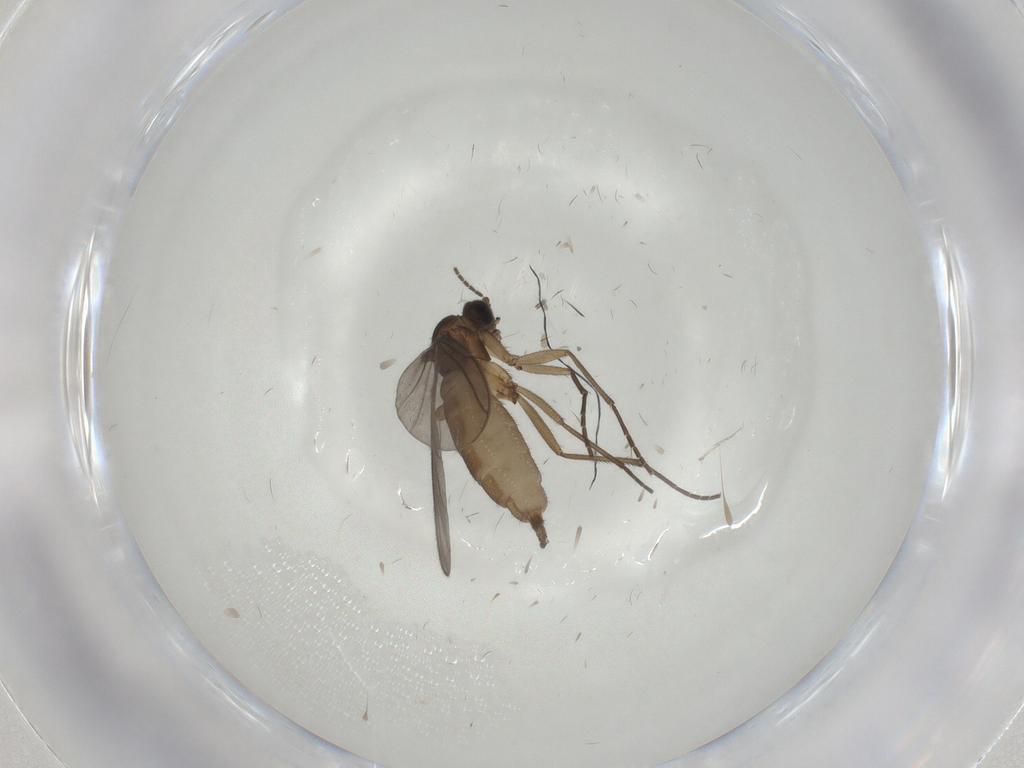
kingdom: Animalia
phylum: Arthropoda
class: Insecta
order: Diptera
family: Sciaridae
